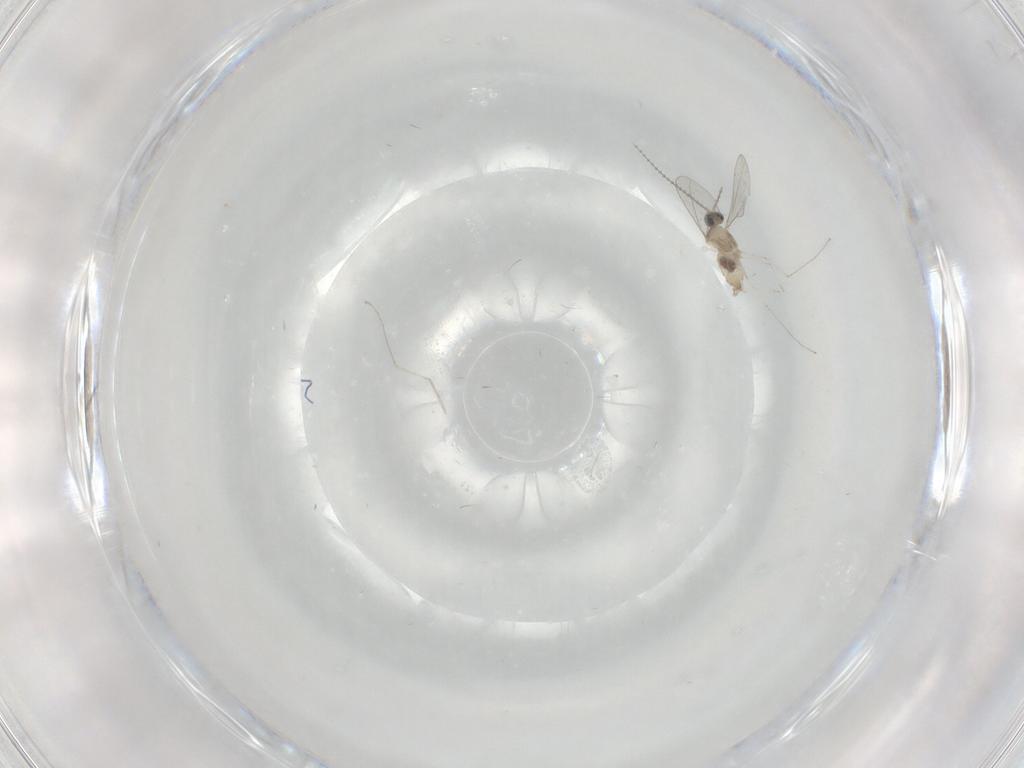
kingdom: Animalia
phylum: Arthropoda
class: Insecta
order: Diptera
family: Cecidomyiidae
